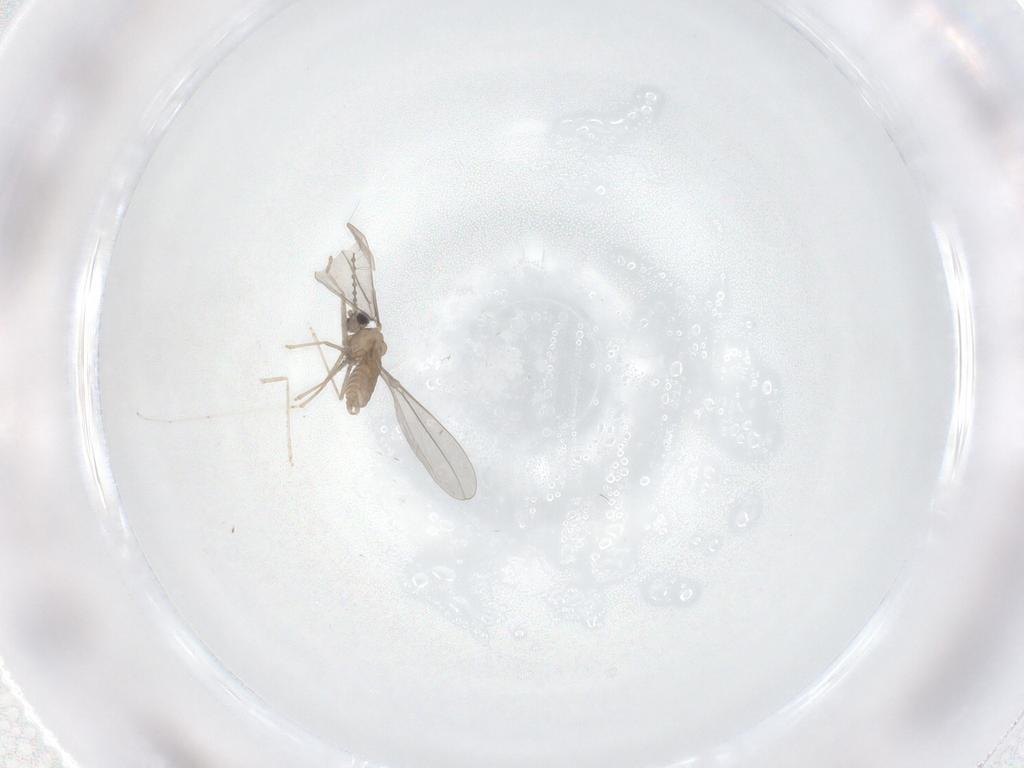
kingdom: Animalia
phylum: Arthropoda
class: Insecta
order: Diptera
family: Cecidomyiidae
